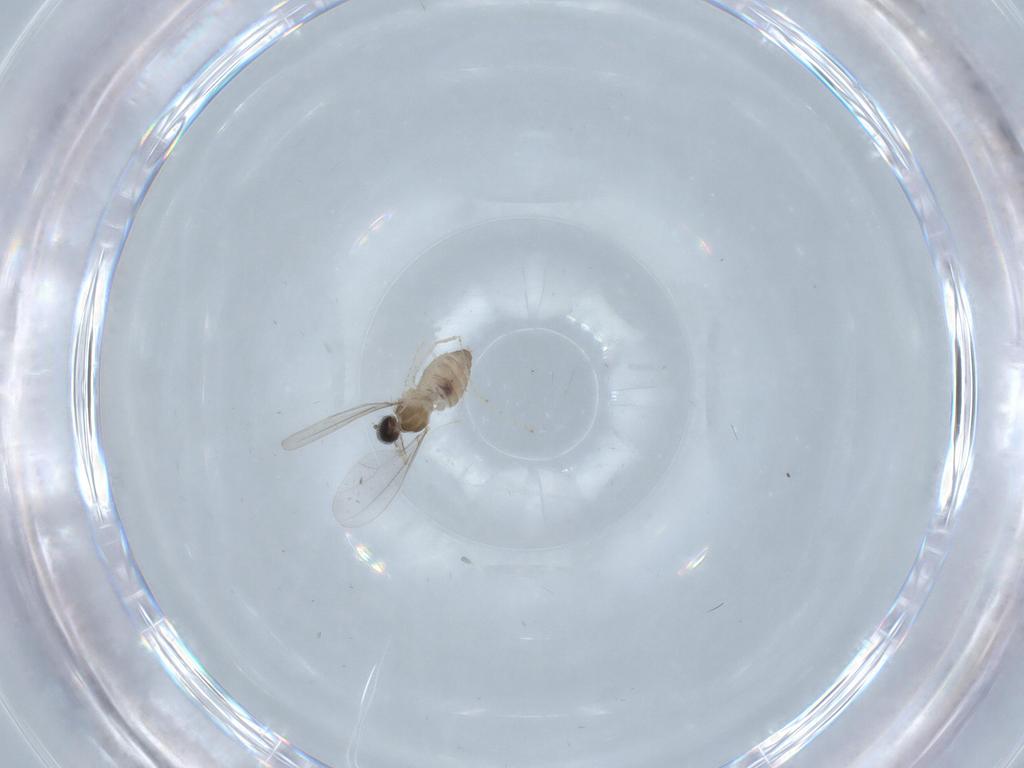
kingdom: Animalia
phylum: Arthropoda
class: Insecta
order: Diptera
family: Cecidomyiidae
